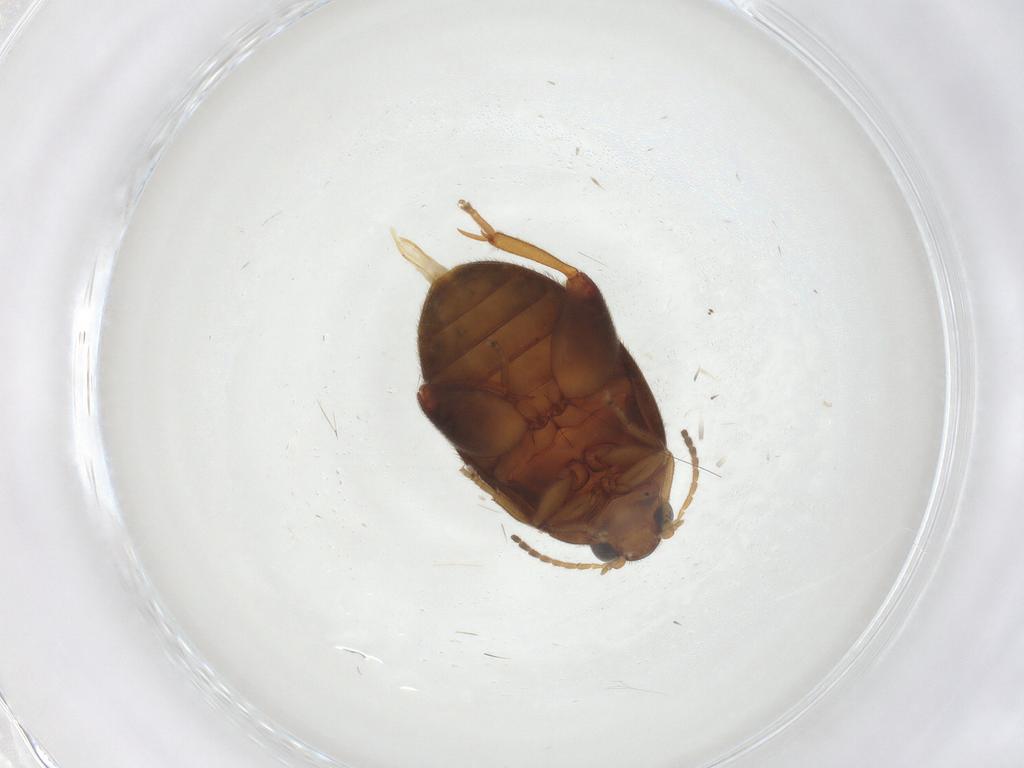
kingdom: Animalia
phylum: Arthropoda
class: Insecta
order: Coleoptera
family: Scirtidae
